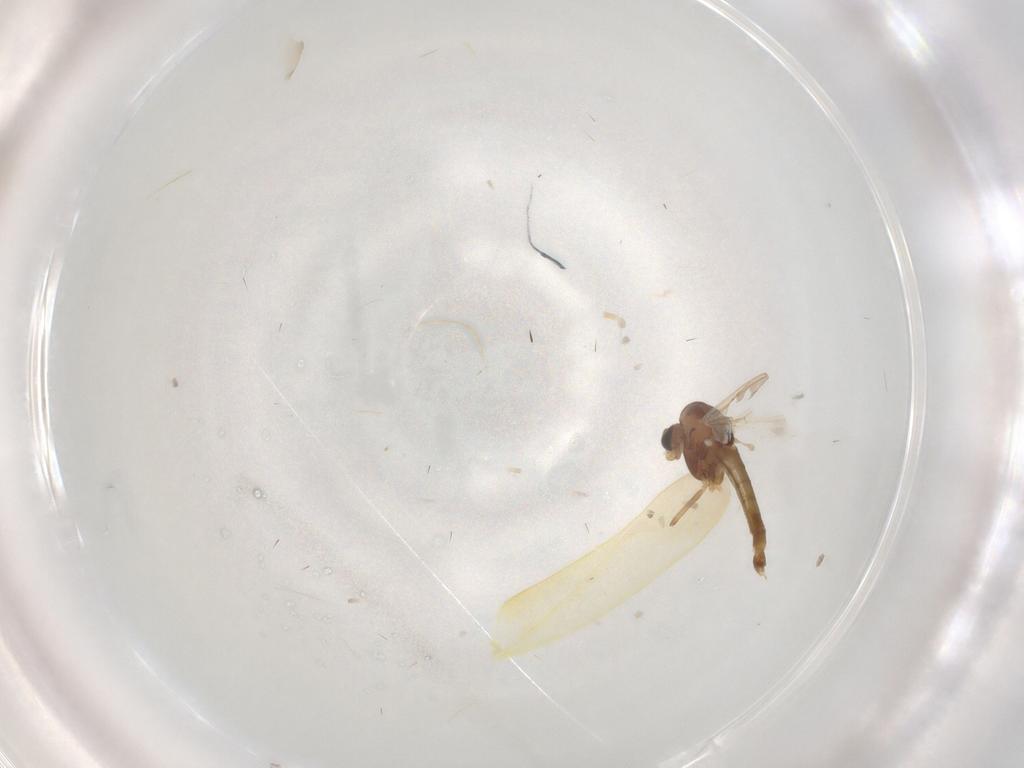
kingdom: Animalia
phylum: Arthropoda
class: Insecta
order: Diptera
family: Chironomidae
